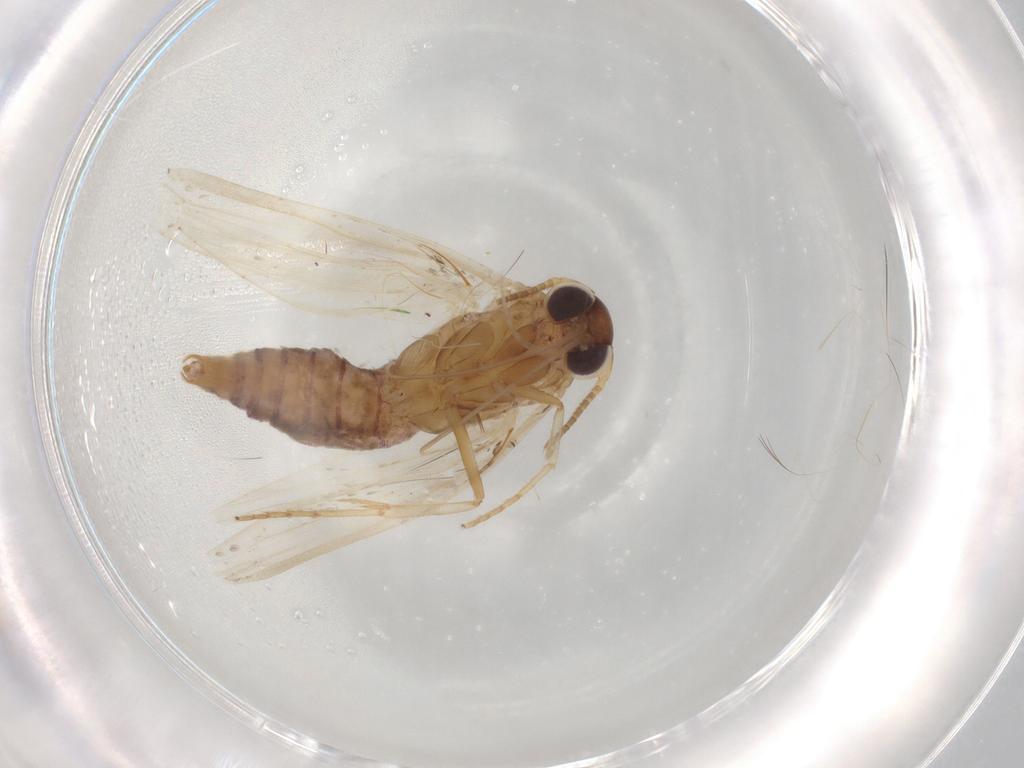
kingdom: Animalia
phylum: Arthropoda
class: Insecta
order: Lepidoptera
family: Blastobasidae
